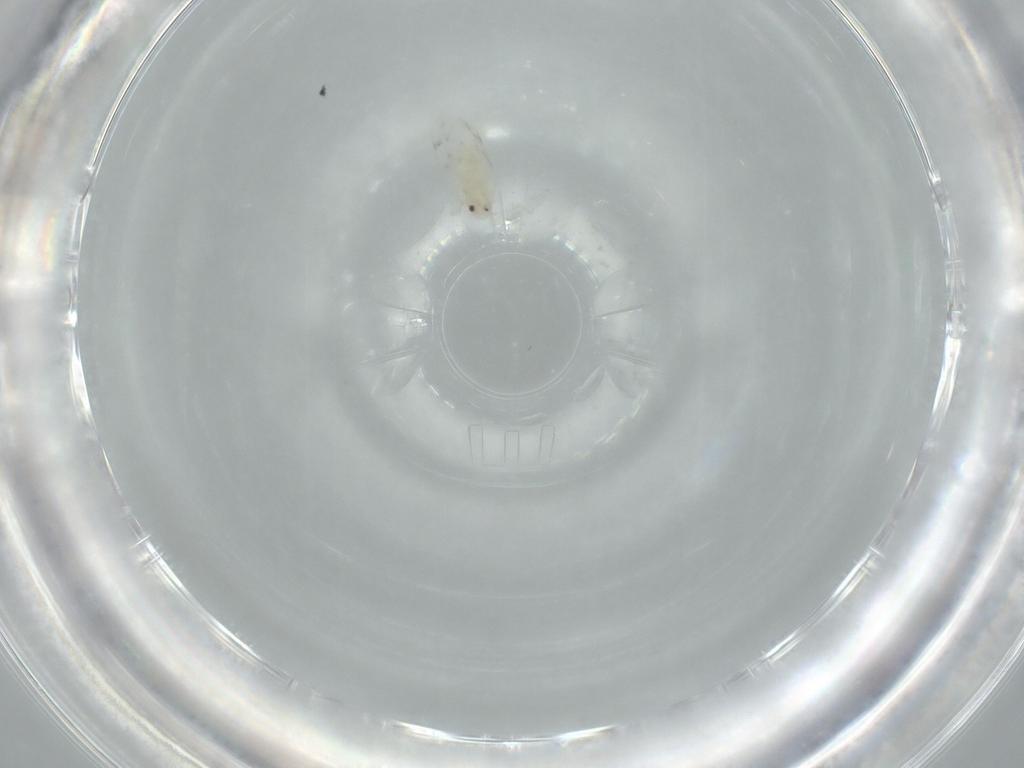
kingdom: Animalia
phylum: Arthropoda
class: Insecta
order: Hemiptera
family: Aleyrodidae
